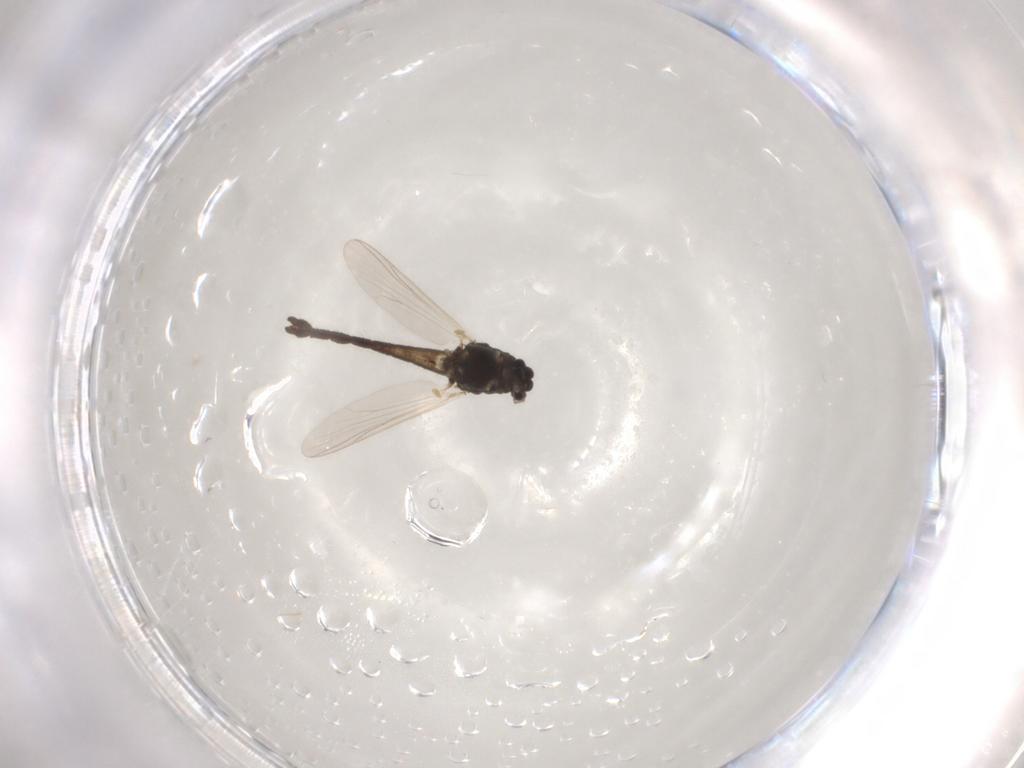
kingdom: Animalia
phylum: Arthropoda
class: Insecta
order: Diptera
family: Chironomidae
